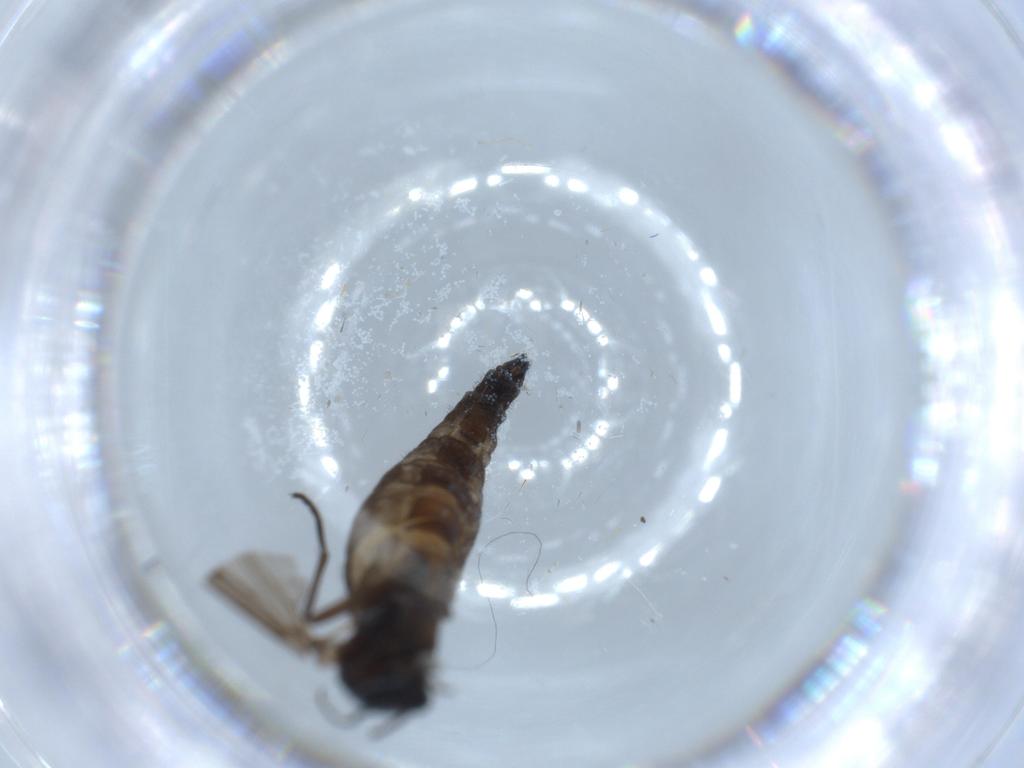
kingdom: Animalia
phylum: Arthropoda
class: Insecta
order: Diptera
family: Sciaridae
